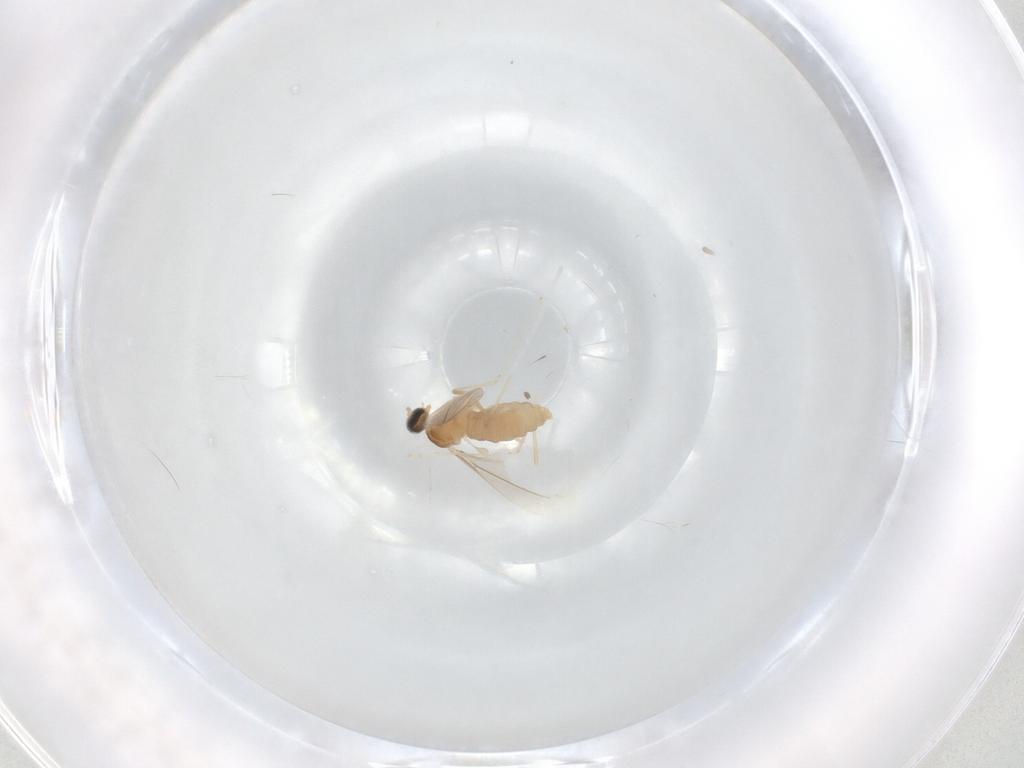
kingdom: Animalia
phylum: Arthropoda
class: Insecta
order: Diptera
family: Cecidomyiidae
